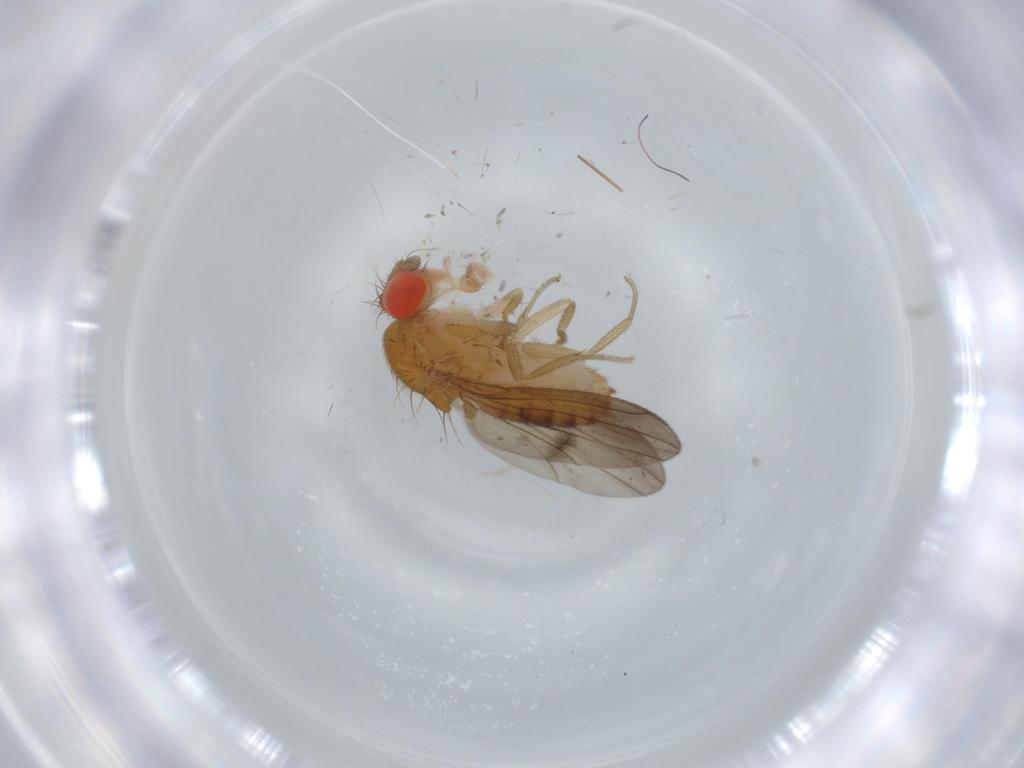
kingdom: Animalia
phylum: Arthropoda
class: Insecta
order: Diptera
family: Drosophilidae
